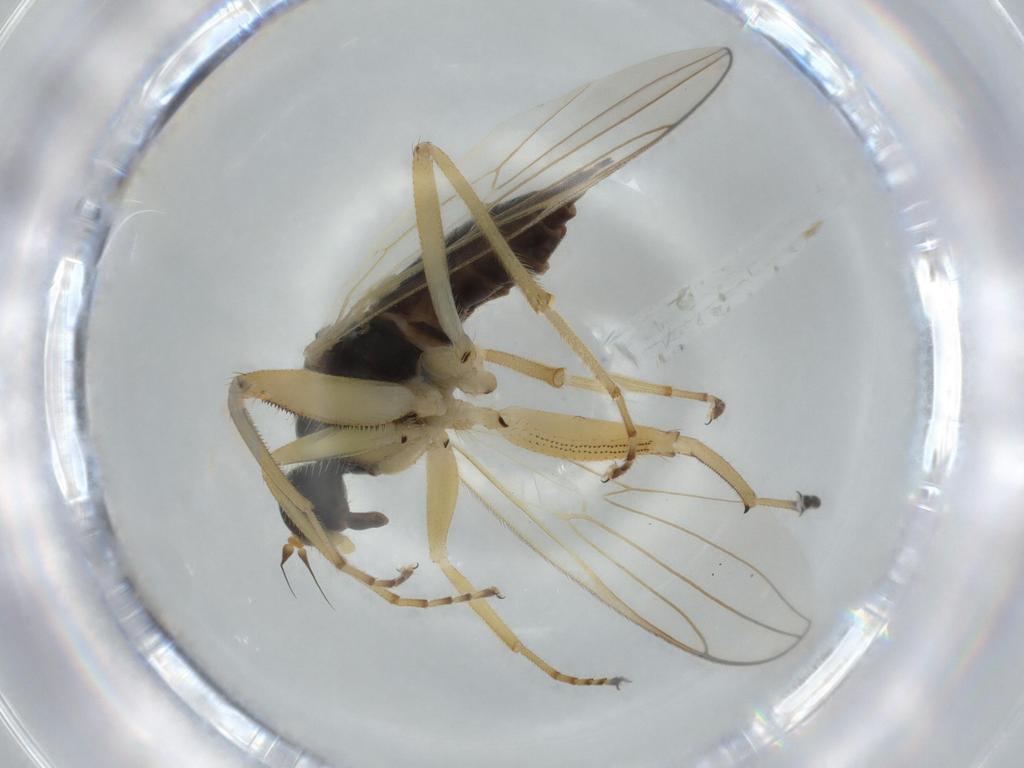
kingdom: Animalia
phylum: Arthropoda
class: Insecta
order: Diptera
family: Hybotidae
